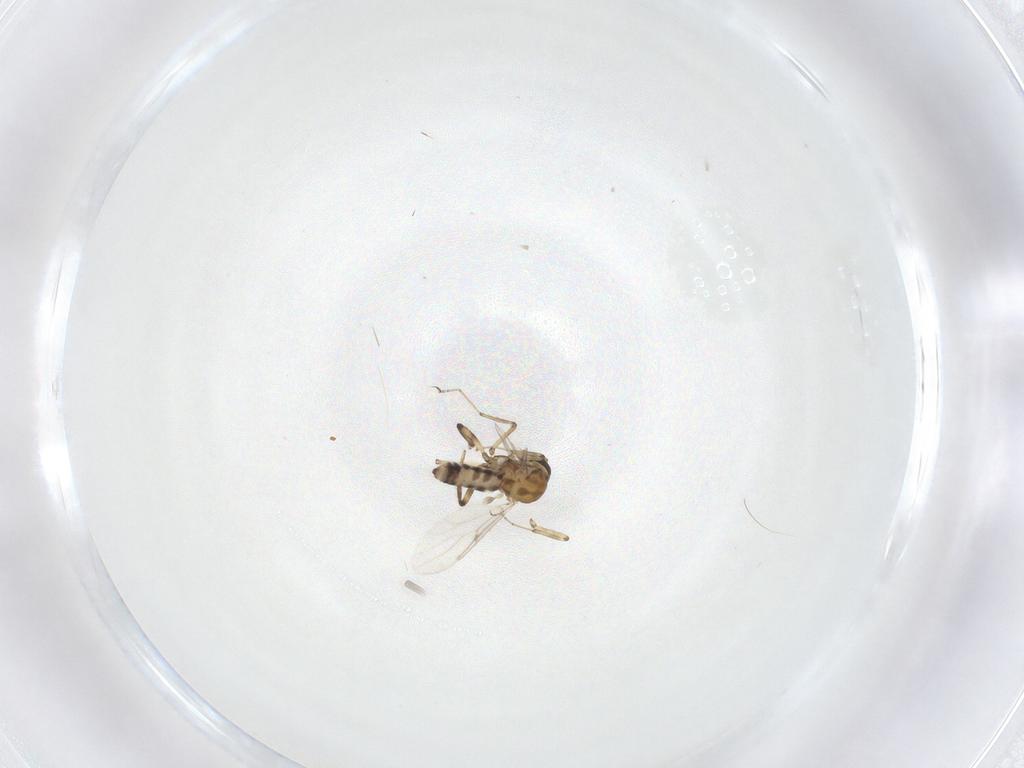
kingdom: Animalia
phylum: Arthropoda
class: Insecta
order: Diptera
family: Ceratopogonidae
